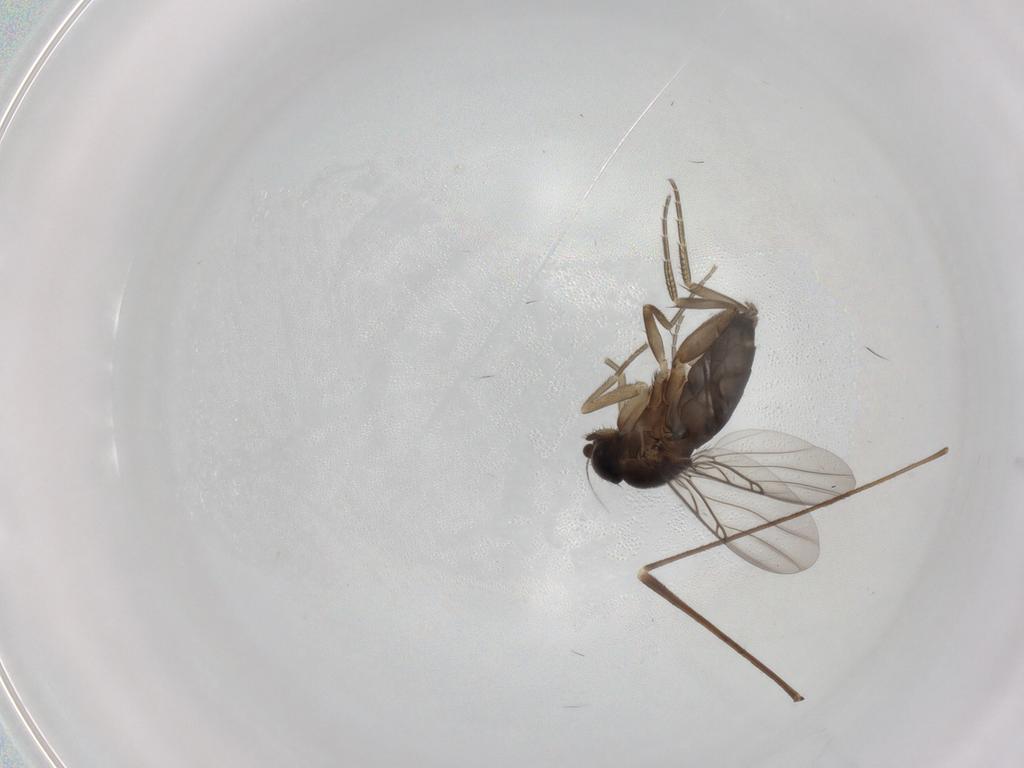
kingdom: Animalia
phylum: Arthropoda
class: Insecta
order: Diptera
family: Phoridae
